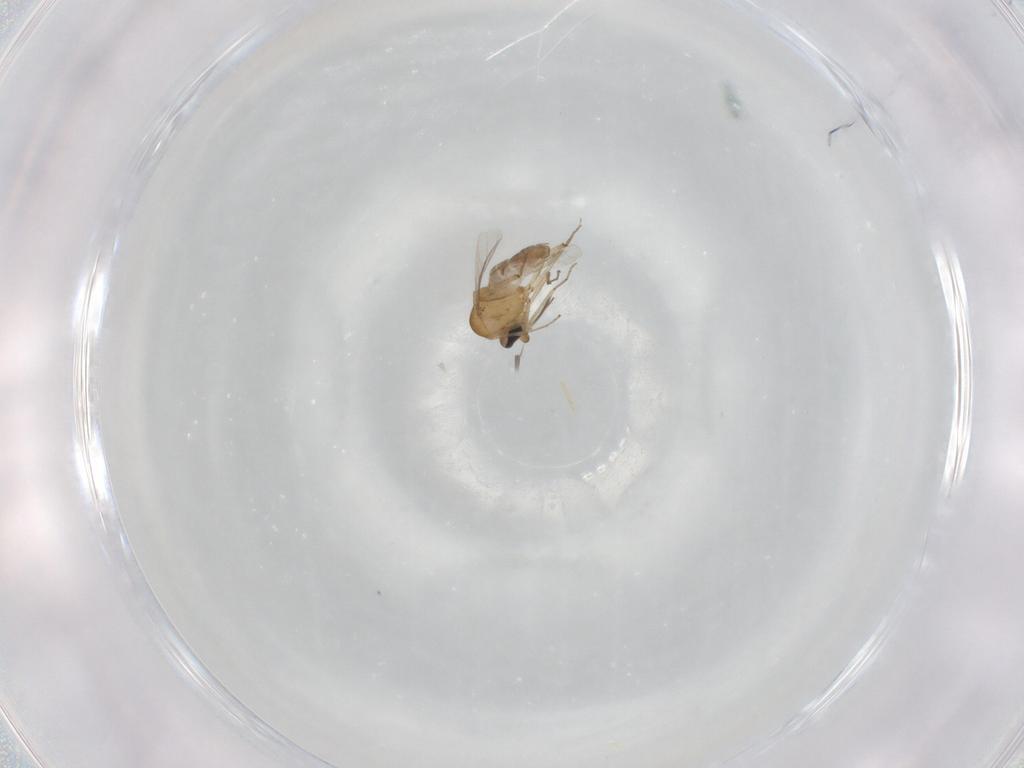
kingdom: Animalia
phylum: Arthropoda
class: Insecta
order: Diptera
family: Ceratopogonidae
